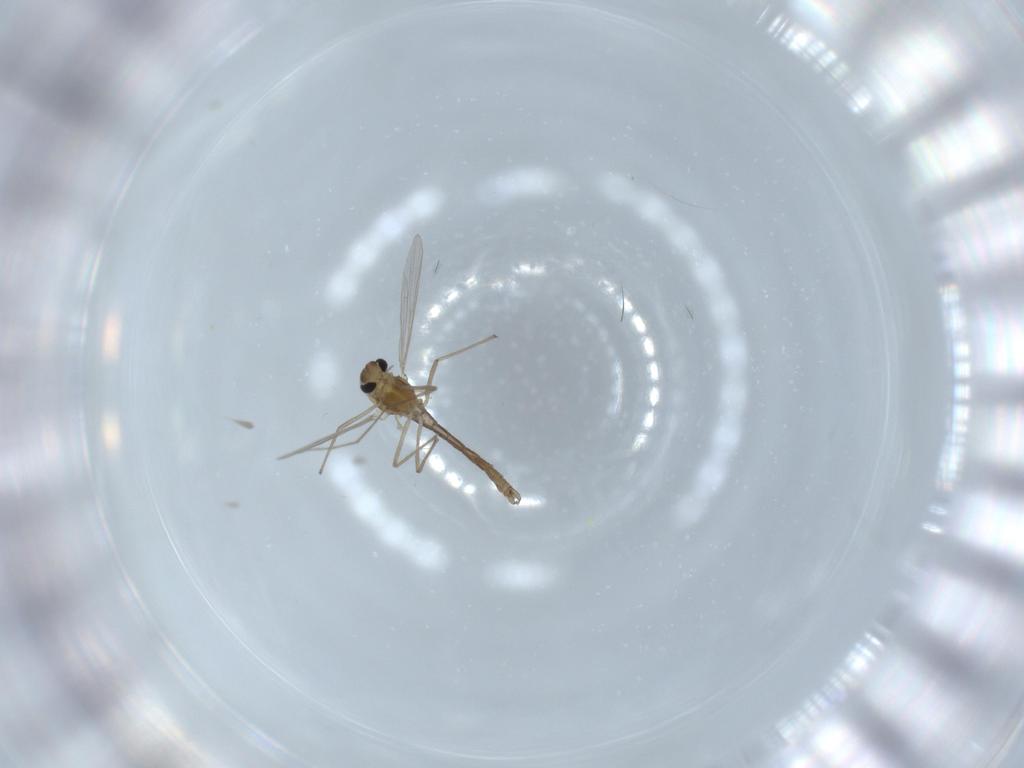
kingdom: Animalia
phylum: Arthropoda
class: Insecta
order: Diptera
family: Chironomidae
